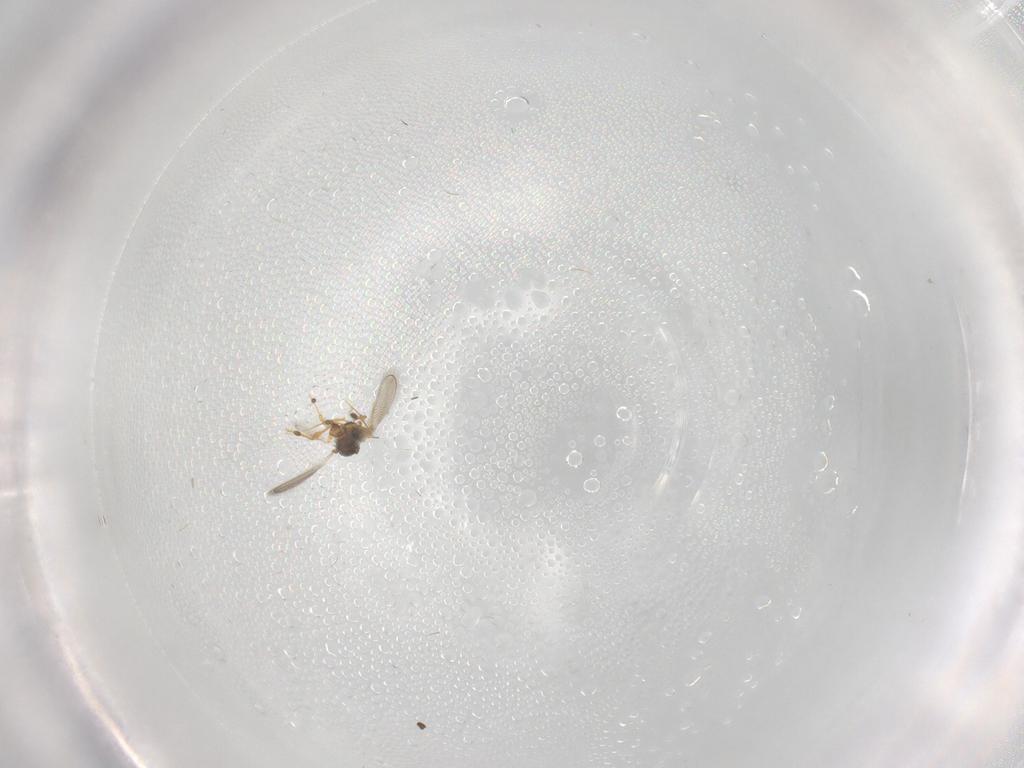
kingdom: Animalia
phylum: Arthropoda
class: Insecta
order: Hymenoptera
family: Platygastridae
